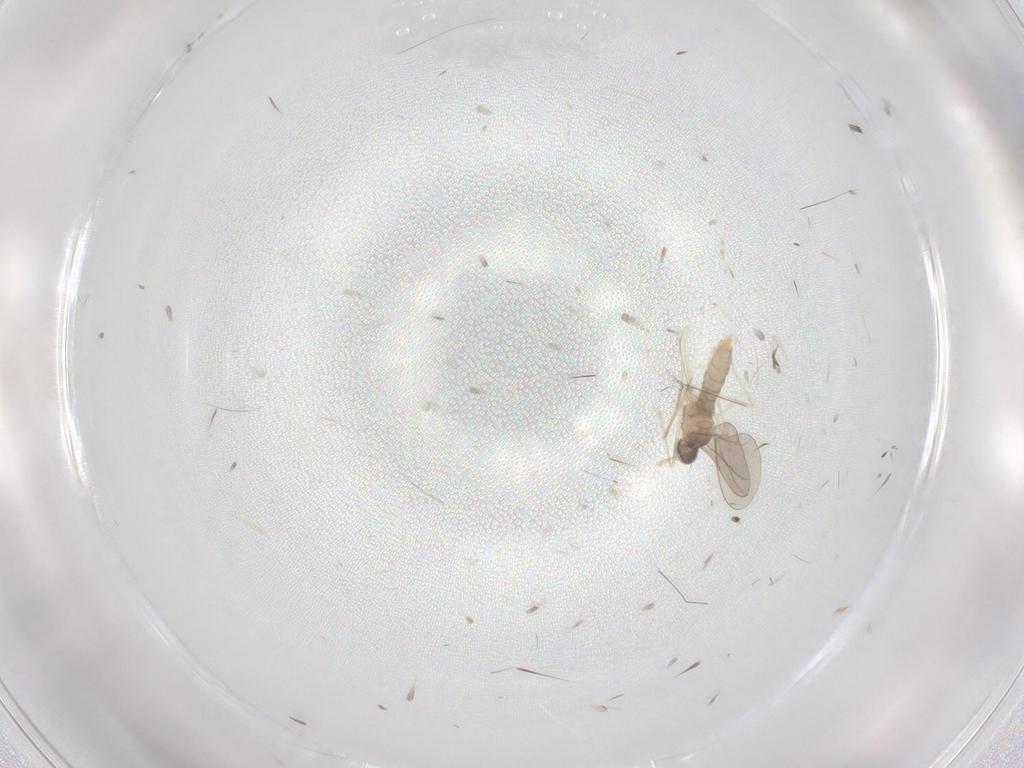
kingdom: Animalia
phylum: Arthropoda
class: Insecta
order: Diptera
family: Cecidomyiidae
